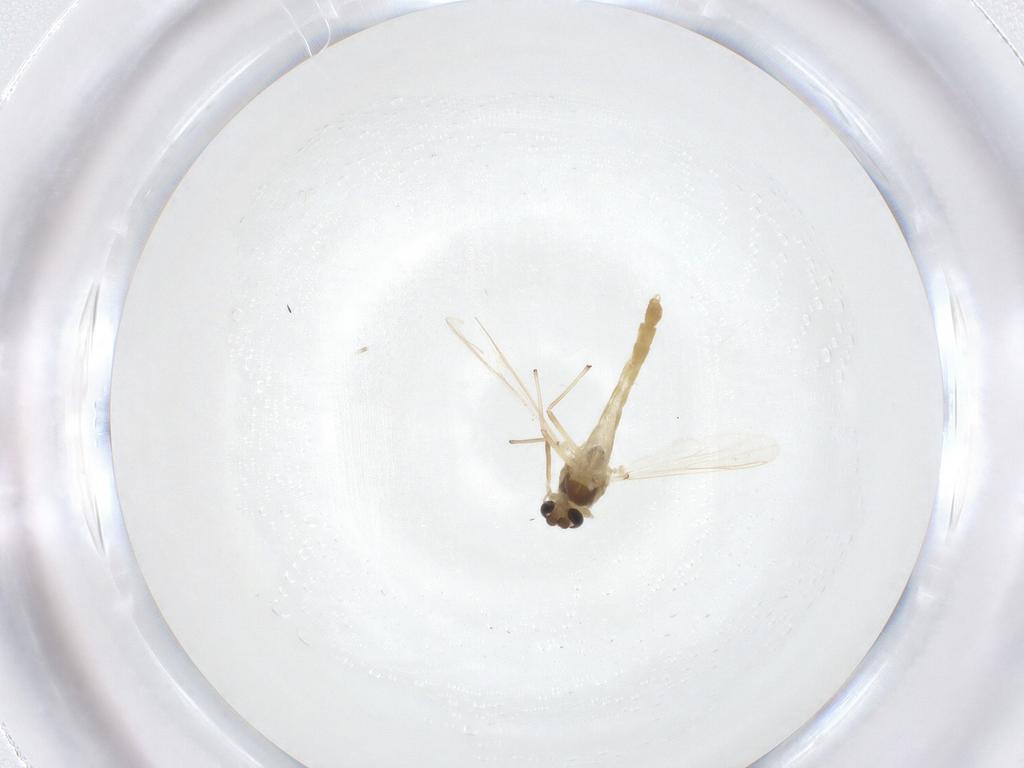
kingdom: Animalia
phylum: Arthropoda
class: Insecta
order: Diptera
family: Chironomidae
